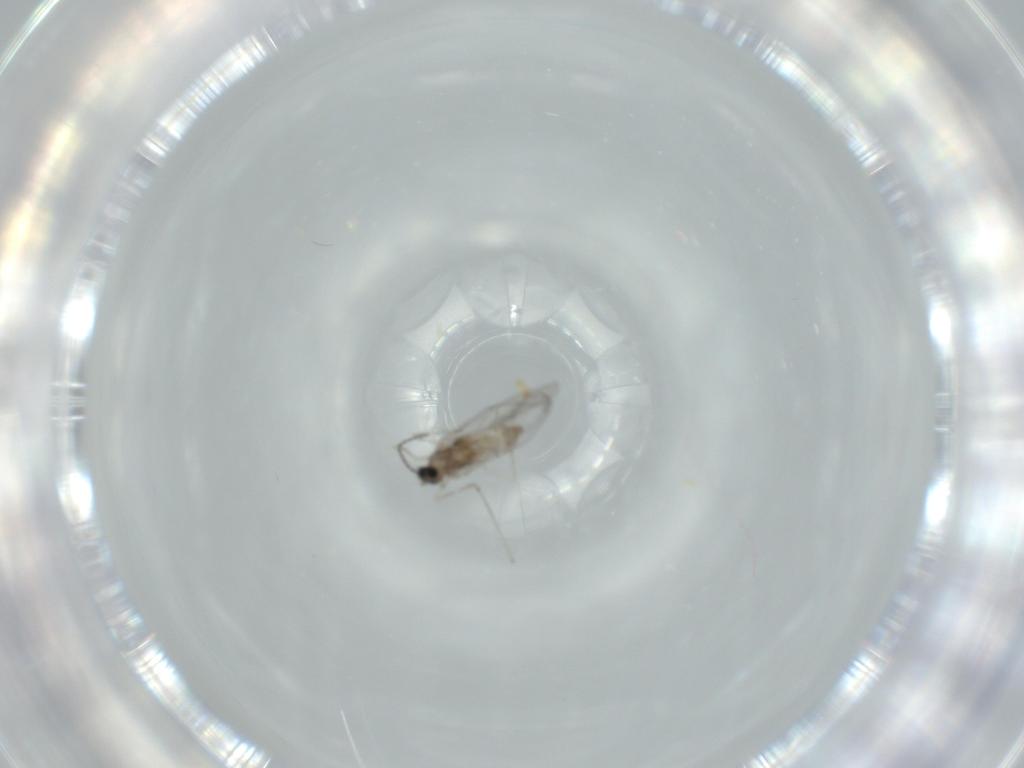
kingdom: Animalia
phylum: Arthropoda
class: Insecta
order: Diptera
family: Cecidomyiidae
